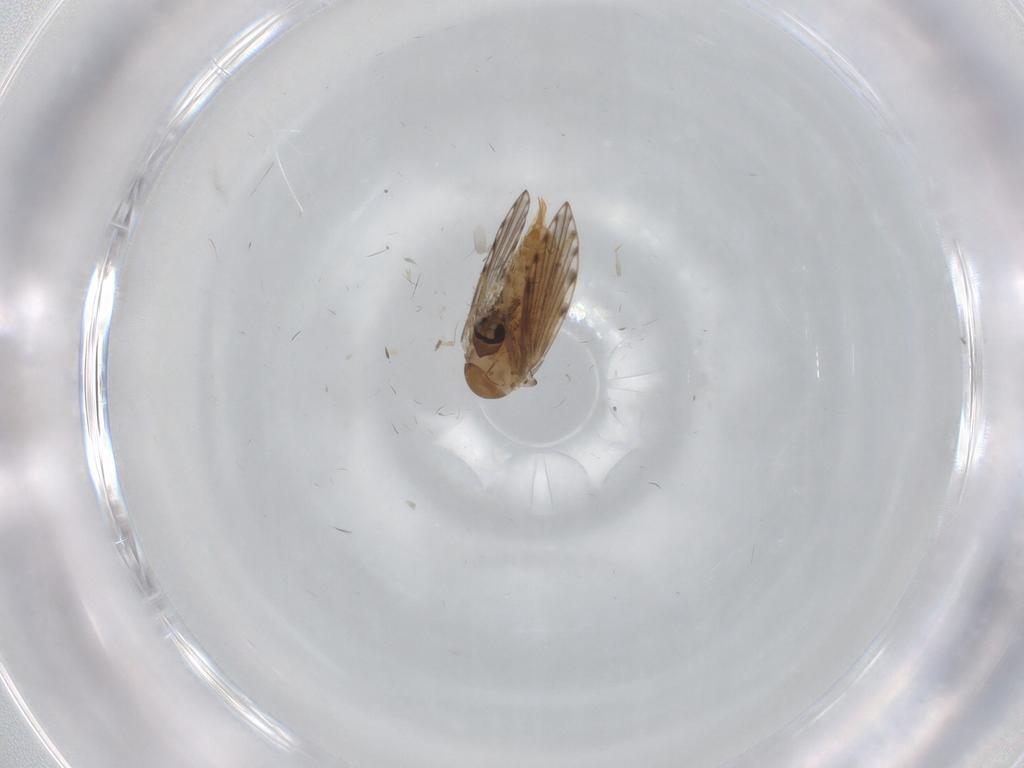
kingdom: Animalia
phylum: Arthropoda
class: Insecta
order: Diptera
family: Psychodidae
